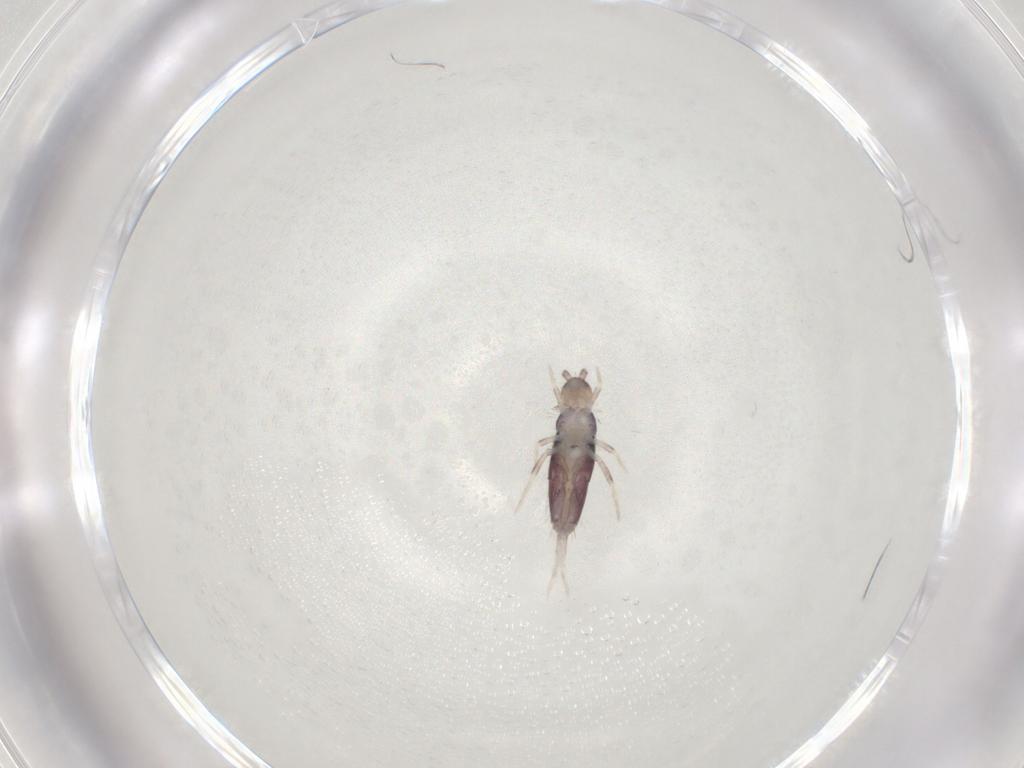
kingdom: Animalia
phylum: Arthropoda
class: Collembola
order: Entomobryomorpha
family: Entomobryidae
